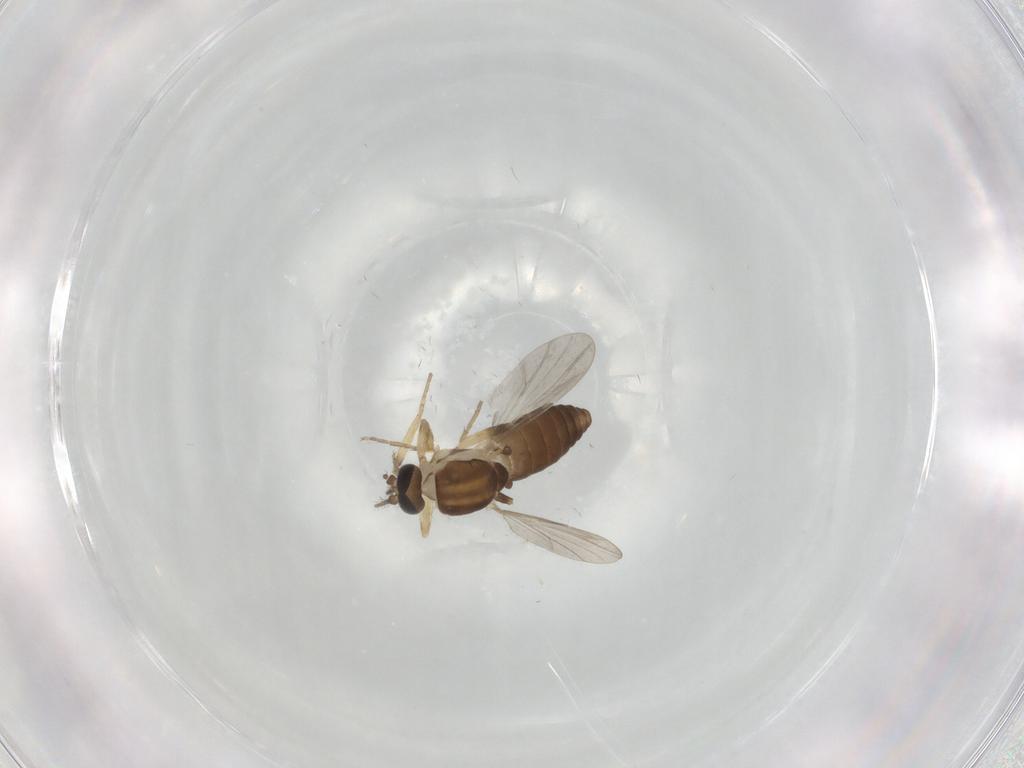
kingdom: Animalia
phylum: Arthropoda
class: Insecta
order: Diptera
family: Ceratopogonidae
